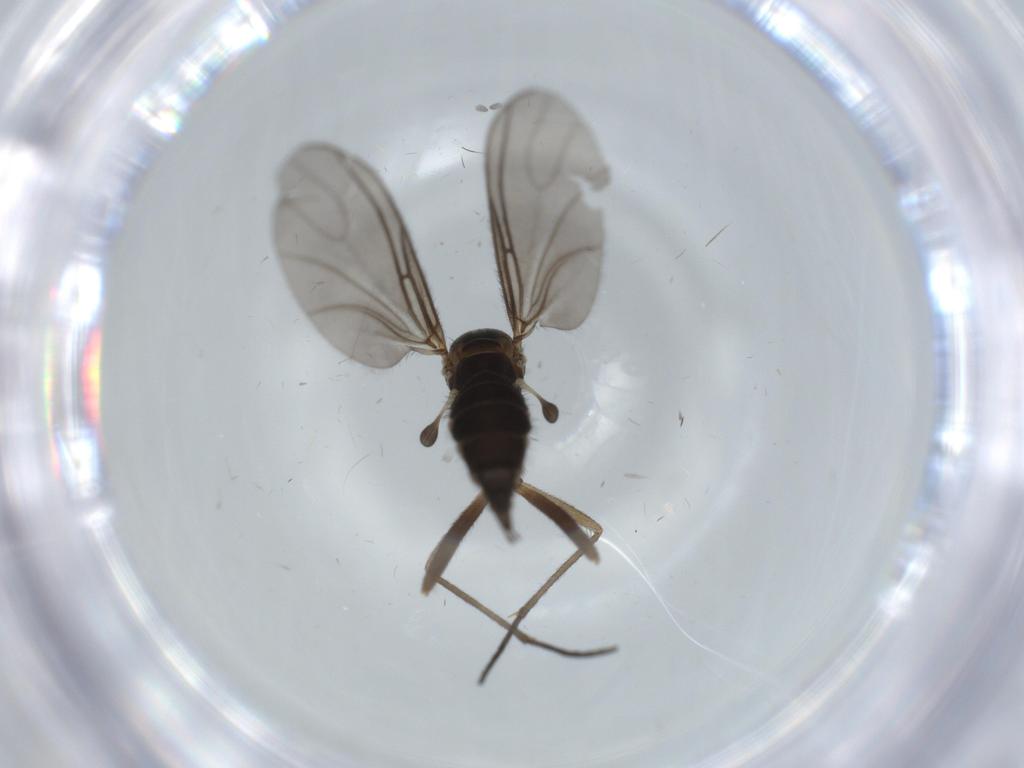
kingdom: Animalia
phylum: Arthropoda
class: Insecta
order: Diptera
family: Sciaridae
